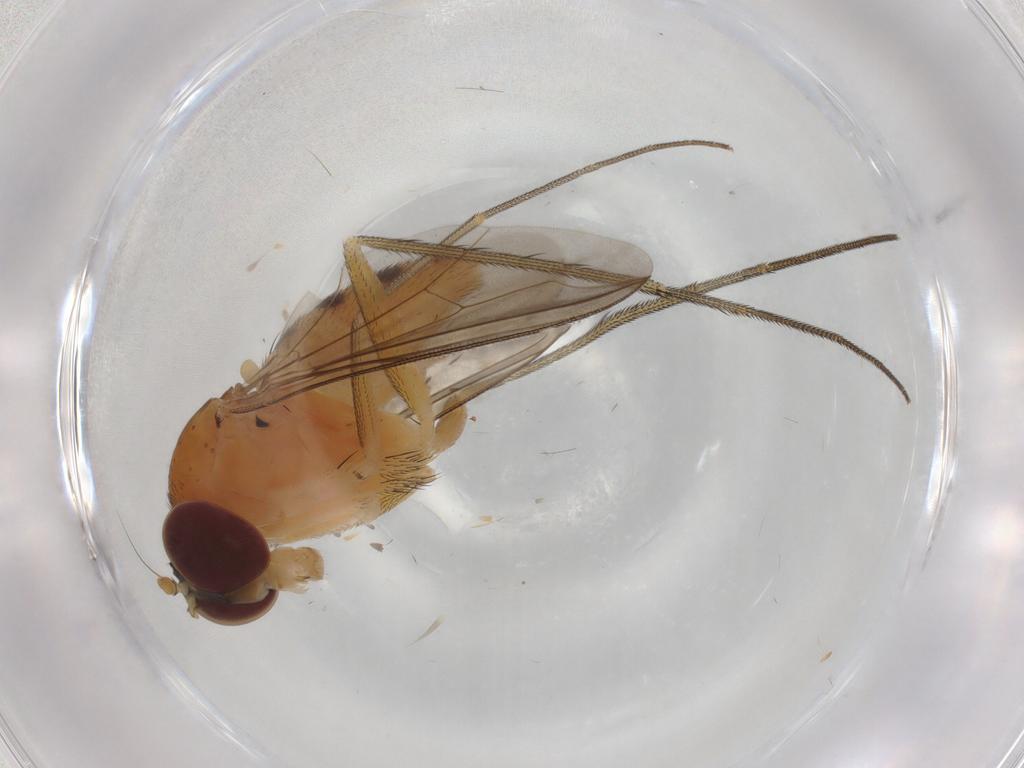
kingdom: Animalia
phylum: Arthropoda
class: Insecta
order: Diptera
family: Dolichopodidae
